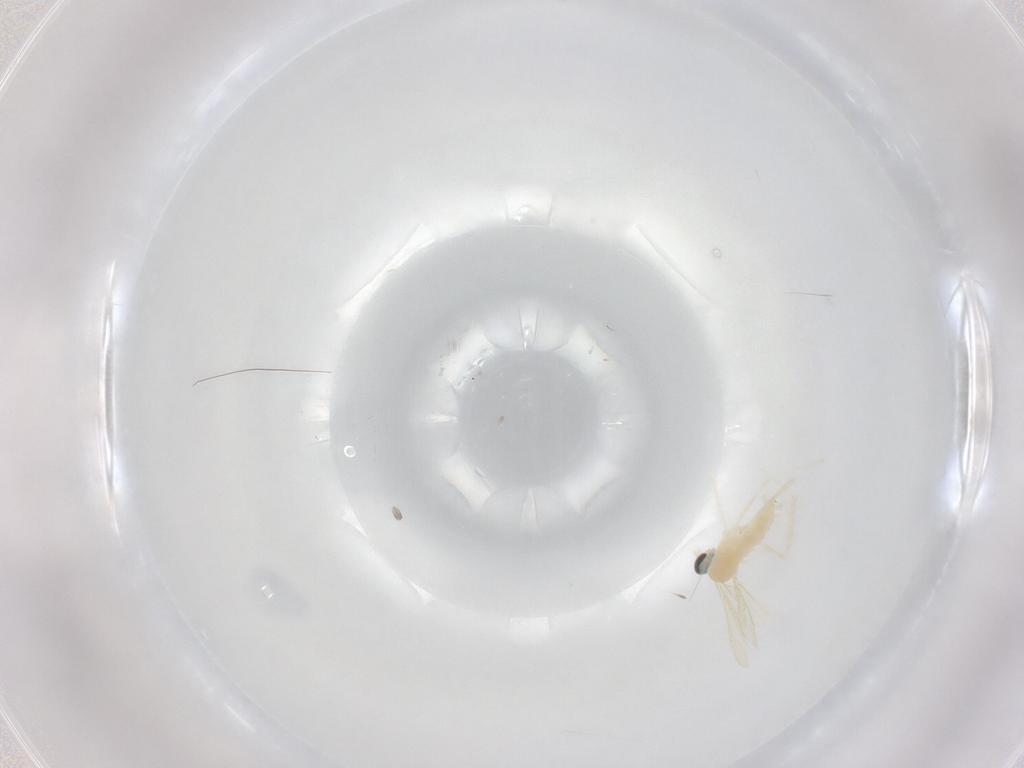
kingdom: Animalia
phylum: Arthropoda
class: Insecta
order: Diptera
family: Cecidomyiidae
